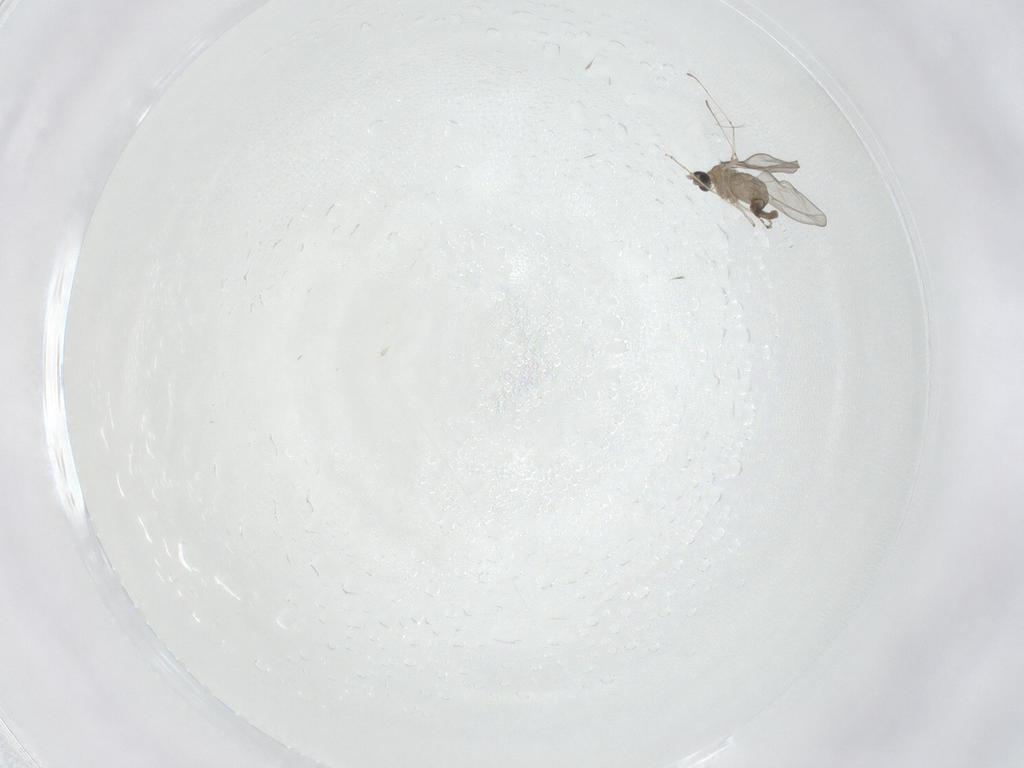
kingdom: Animalia
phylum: Arthropoda
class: Insecta
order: Diptera
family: Cecidomyiidae
